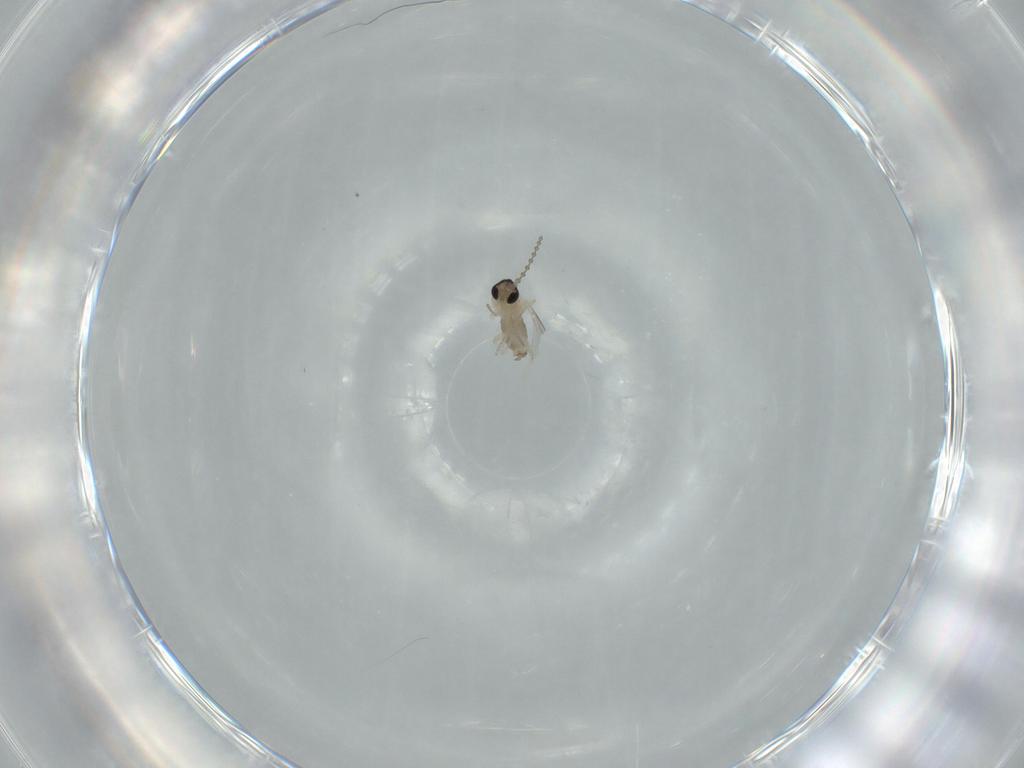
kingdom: Animalia
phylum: Arthropoda
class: Insecta
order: Diptera
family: Cecidomyiidae
